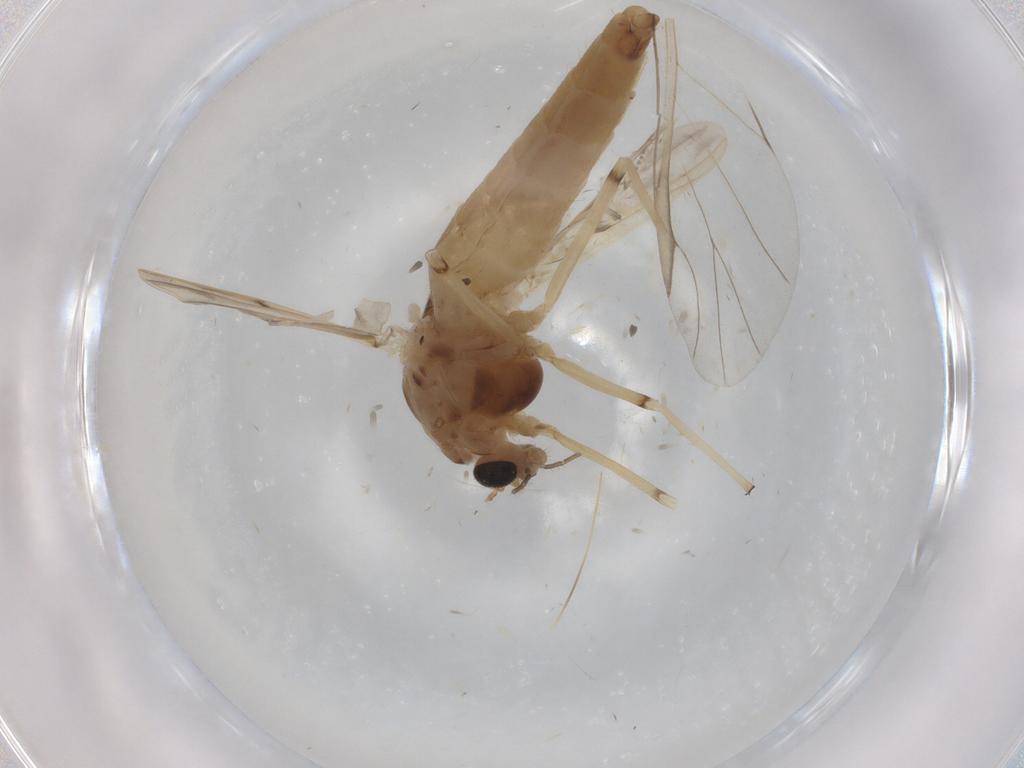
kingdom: Animalia
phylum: Arthropoda
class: Insecta
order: Diptera
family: Chironomidae
